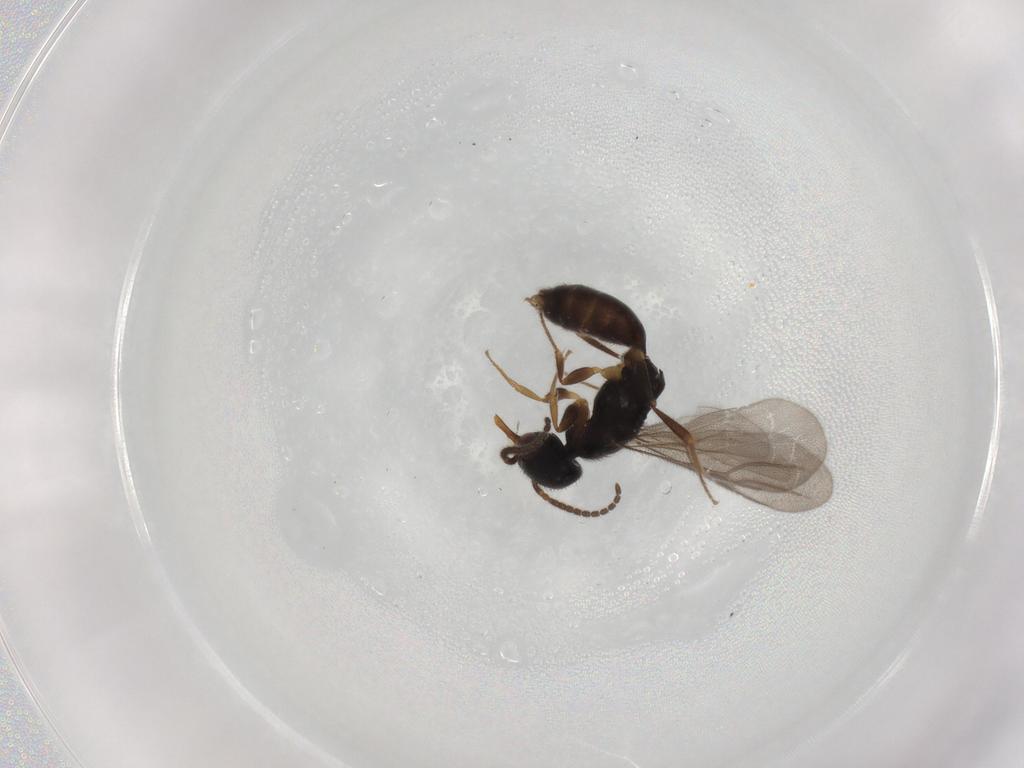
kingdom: Animalia
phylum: Arthropoda
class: Insecta
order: Hymenoptera
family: Bethylidae
